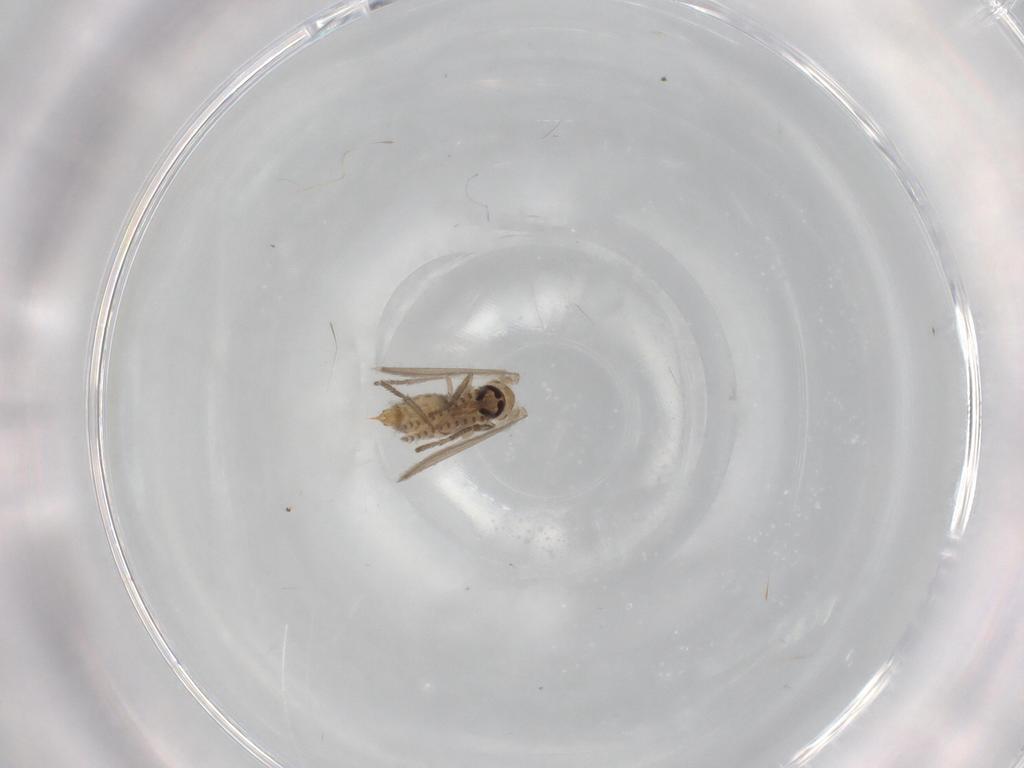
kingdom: Animalia
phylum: Arthropoda
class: Insecta
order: Diptera
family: Psychodidae
